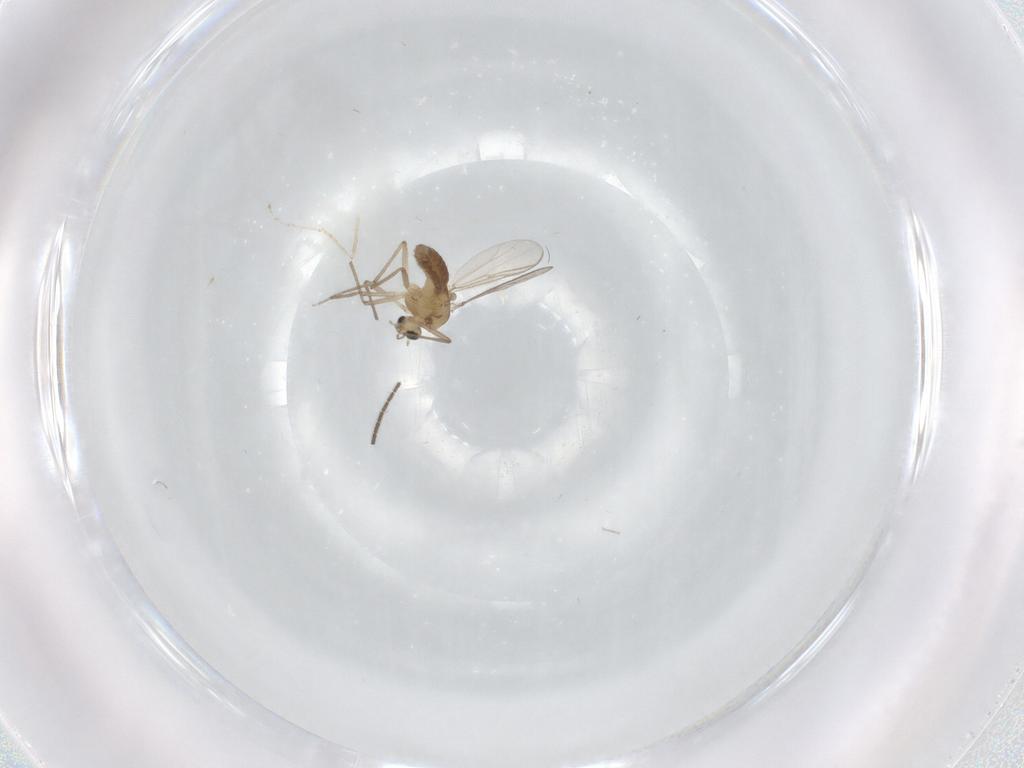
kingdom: Animalia
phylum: Arthropoda
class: Insecta
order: Diptera
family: Chironomidae
